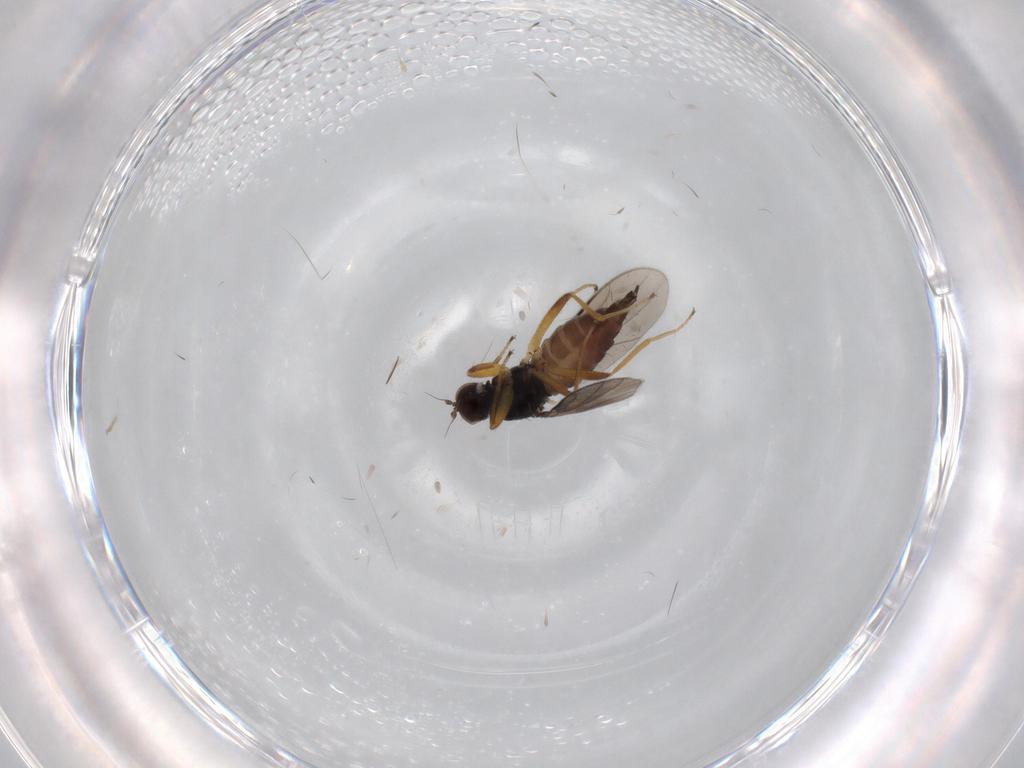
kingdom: Animalia
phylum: Arthropoda
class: Insecta
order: Diptera
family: Hybotidae
